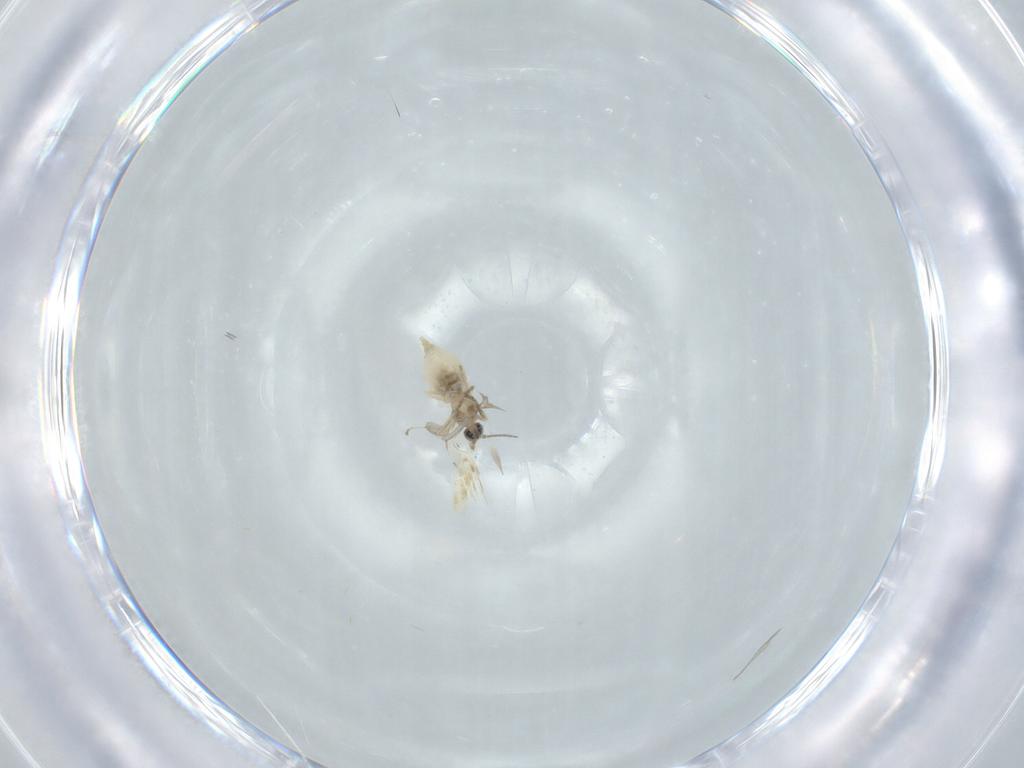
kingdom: Animalia
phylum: Arthropoda
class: Insecta
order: Diptera
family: Cecidomyiidae
